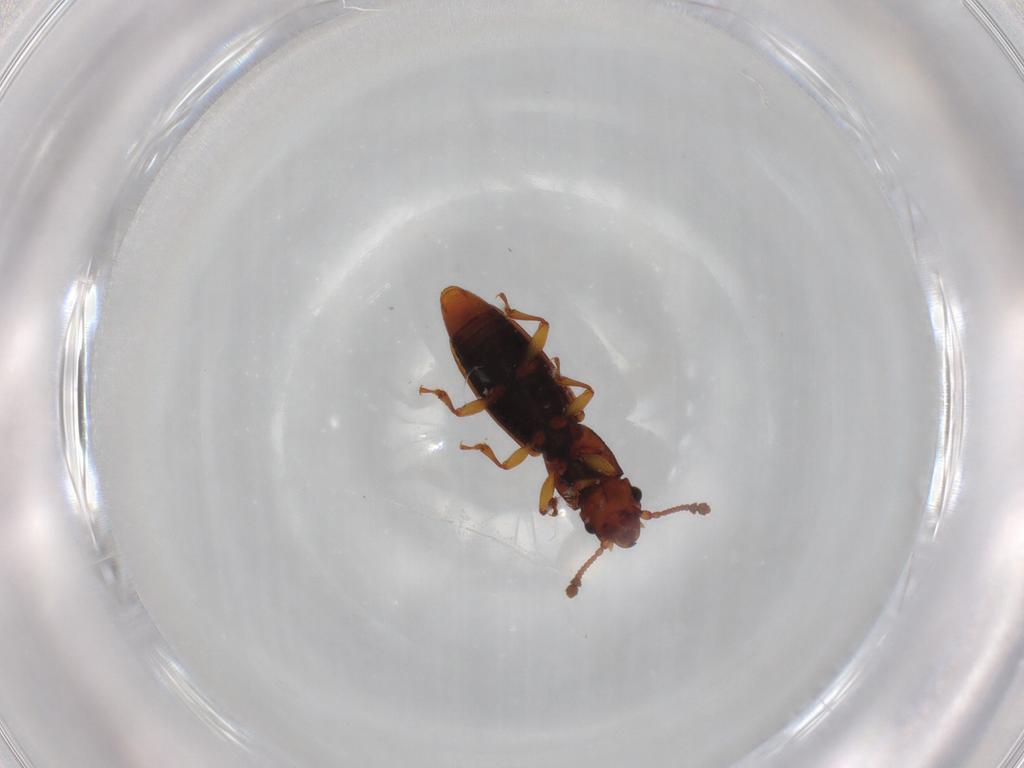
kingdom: Animalia
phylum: Arthropoda
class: Insecta
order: Coleoptera
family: Monotomidae
